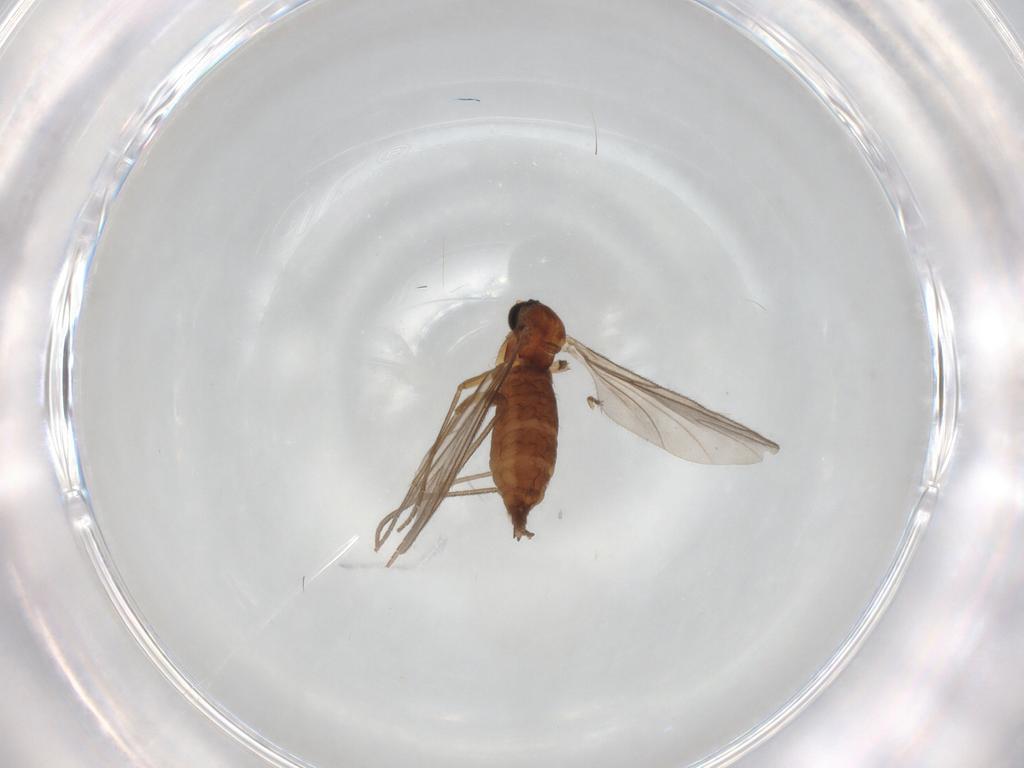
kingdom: Animalia
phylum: Arthropoda
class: Insecta
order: Diptera
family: Sciaridae
